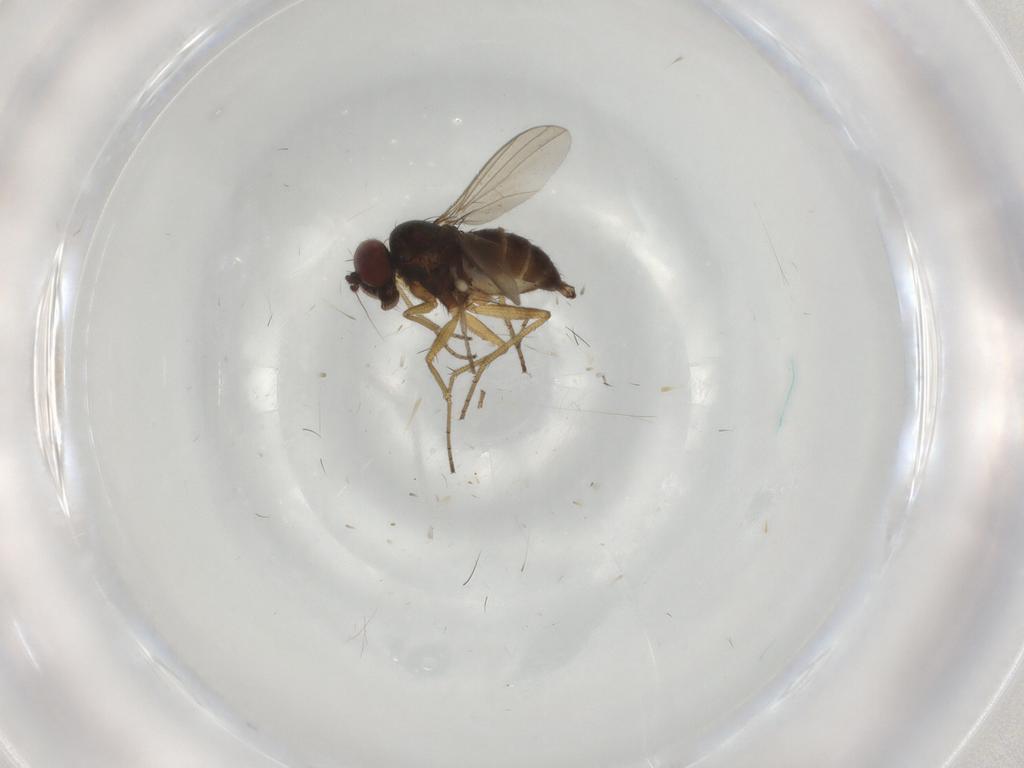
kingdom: Animalia
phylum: Arthropoda
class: Insecta
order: Diptera
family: Dolichopodidae
